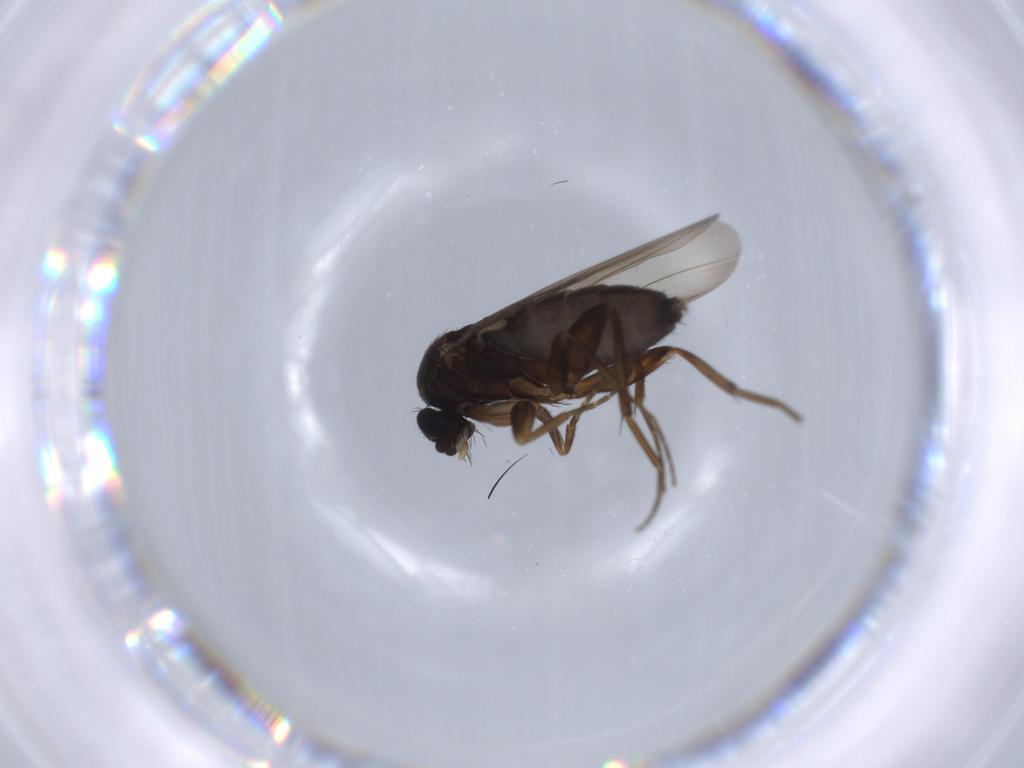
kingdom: Animalia
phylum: Arthropoda
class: Insecta
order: Diptera
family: Phoridae
